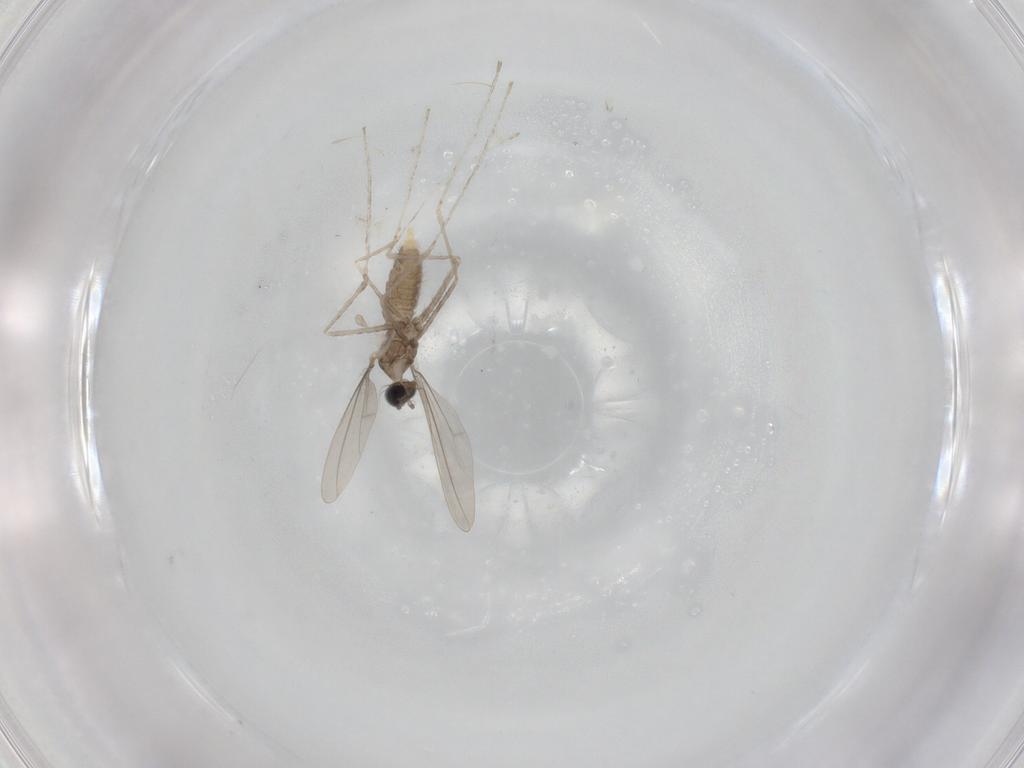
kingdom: Animalia
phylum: Arthropoda
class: Insecta
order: Diptera
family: Cecidomyiidae
